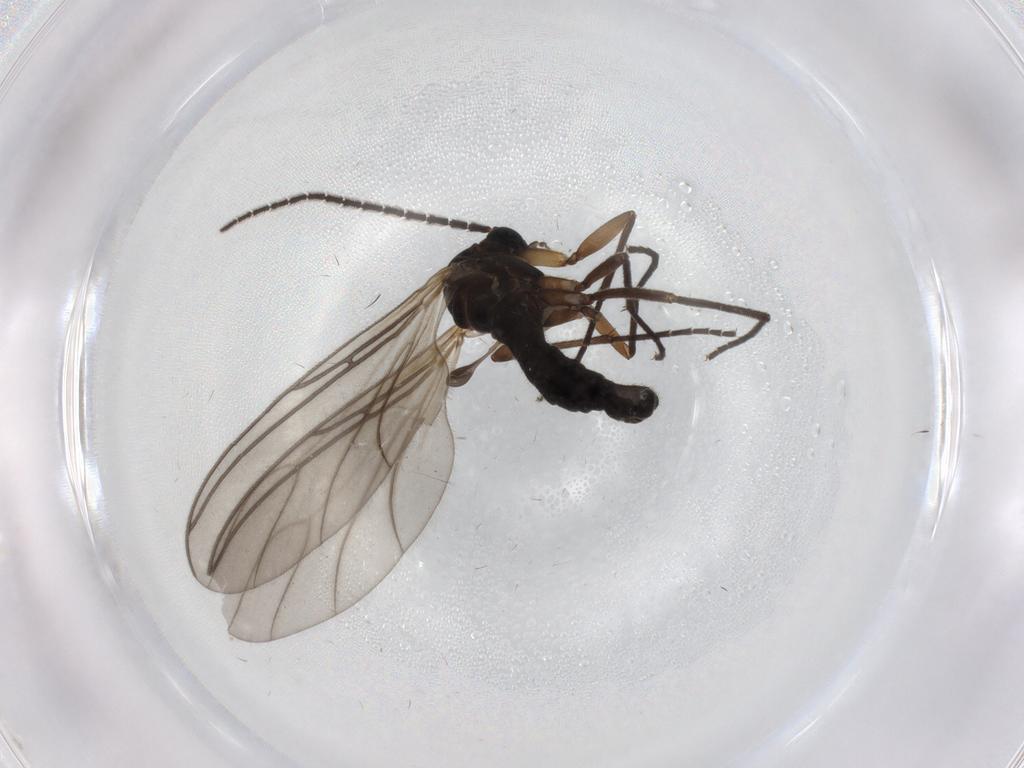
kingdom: Animalia
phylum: Arthropoda
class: Insecta
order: Diptera
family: Sciaridae
